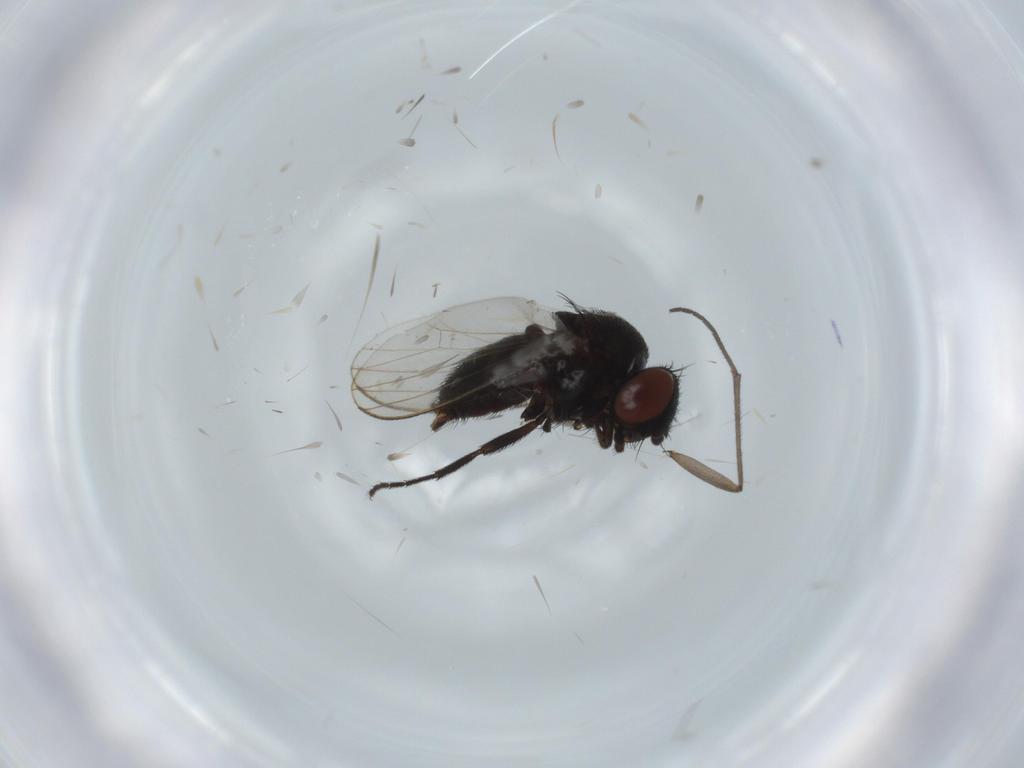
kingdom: Animalia
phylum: Arthropoda
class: Insecta
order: Diptera
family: Cecidomyiidae
